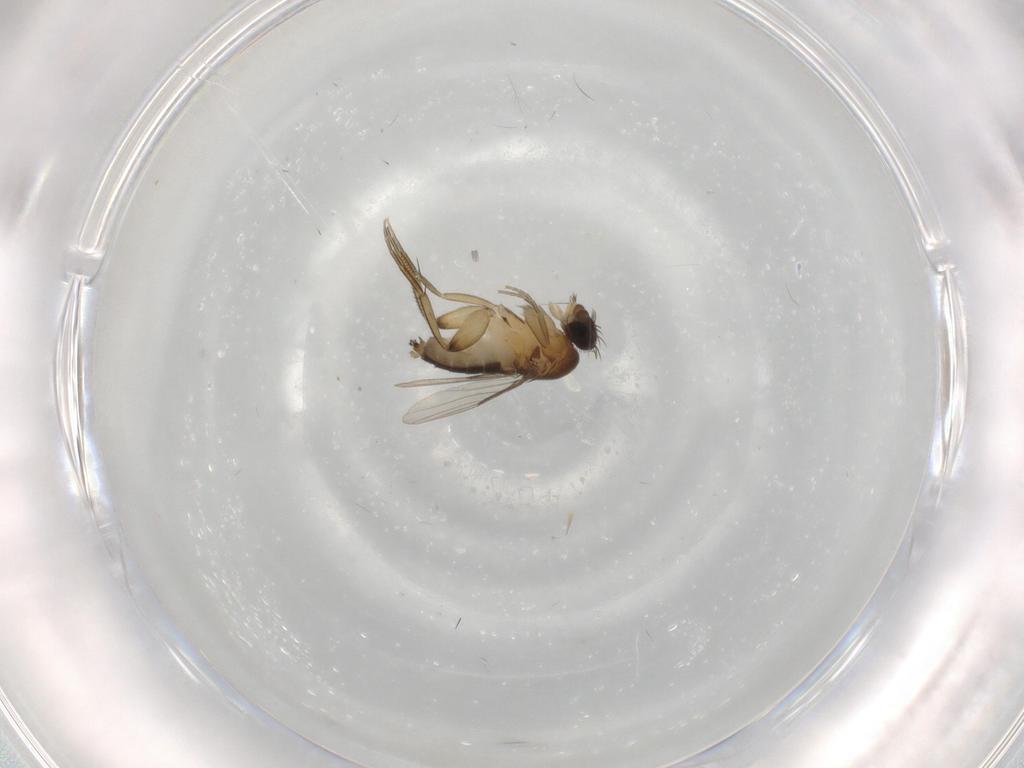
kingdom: Animalia
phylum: Arthropoda
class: Insecta
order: Diptera
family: Phoridae
